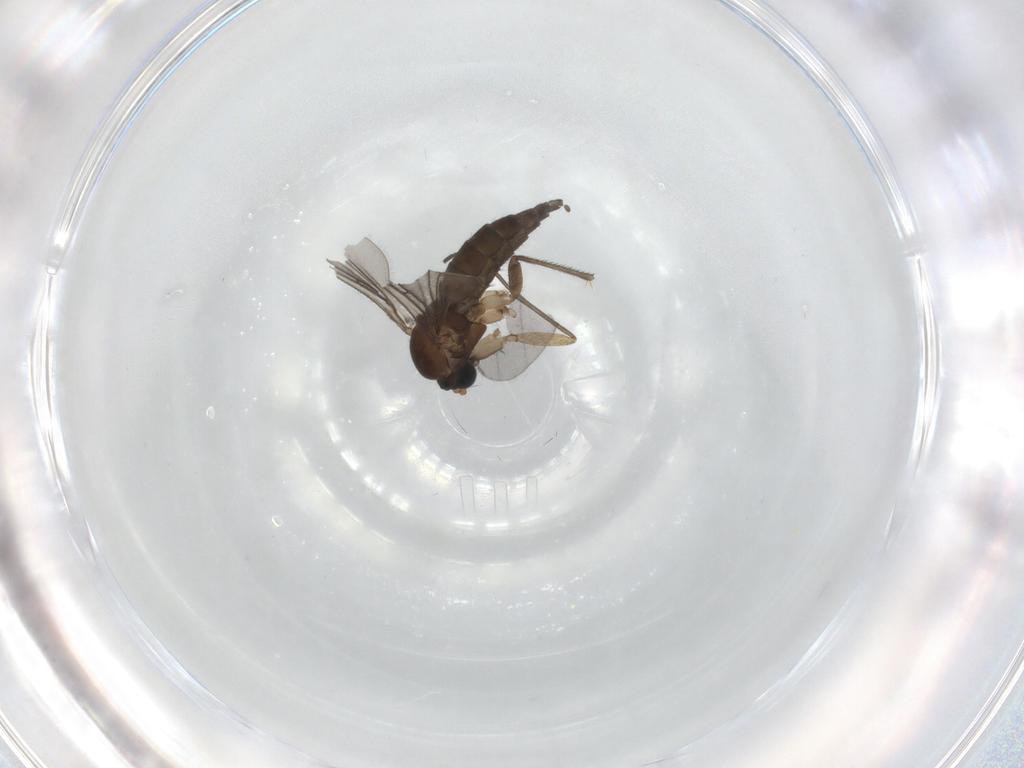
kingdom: Animalia
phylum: Arthropoda
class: Insecta
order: Diptera
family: Sciaridae
